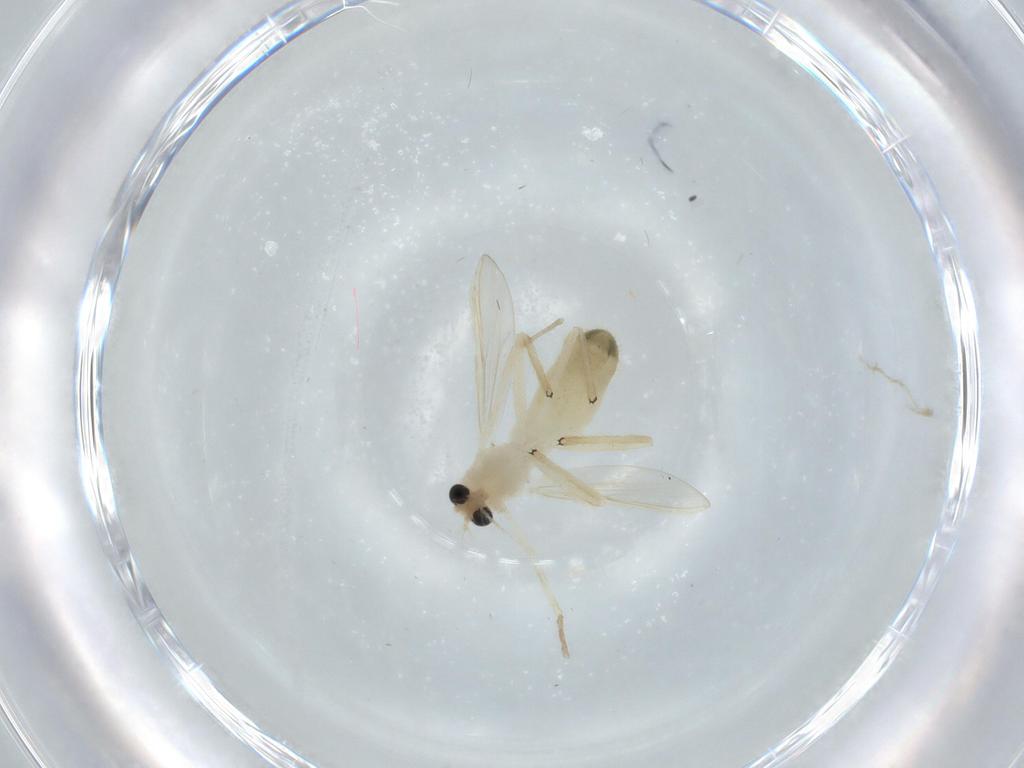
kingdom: Animalia
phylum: Arthropoda
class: Insecta
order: Diptera
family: Chironomidae
